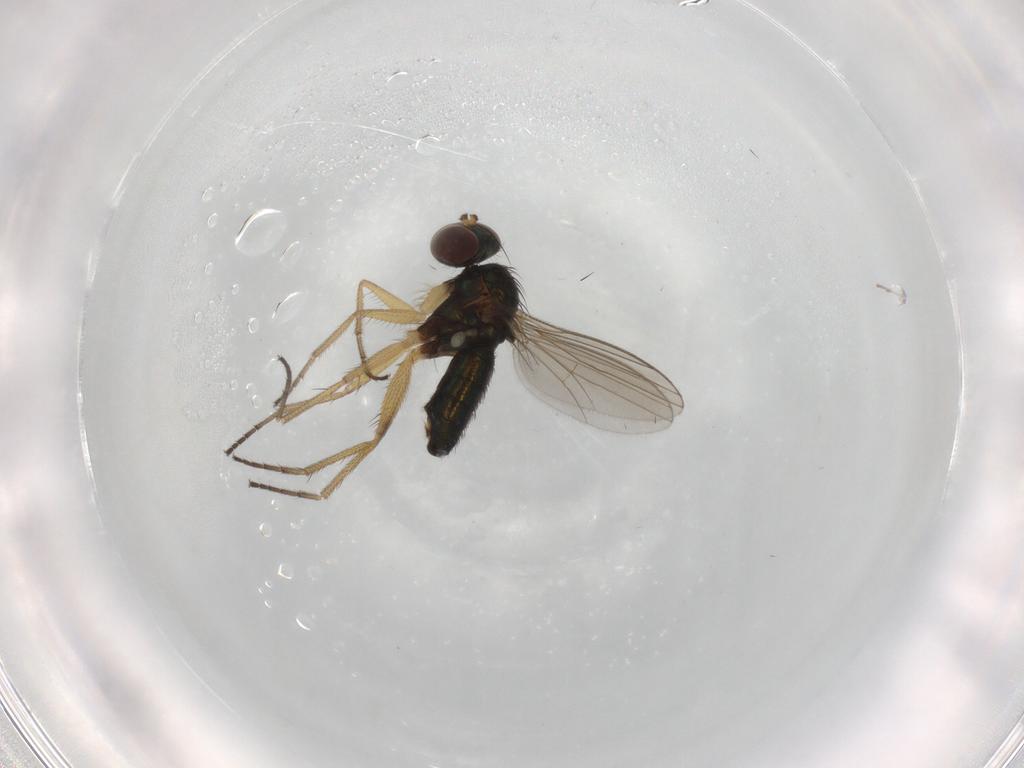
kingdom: Animalia
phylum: Arthropoda
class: Insecta
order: Diptera
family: Dolichopodidae
